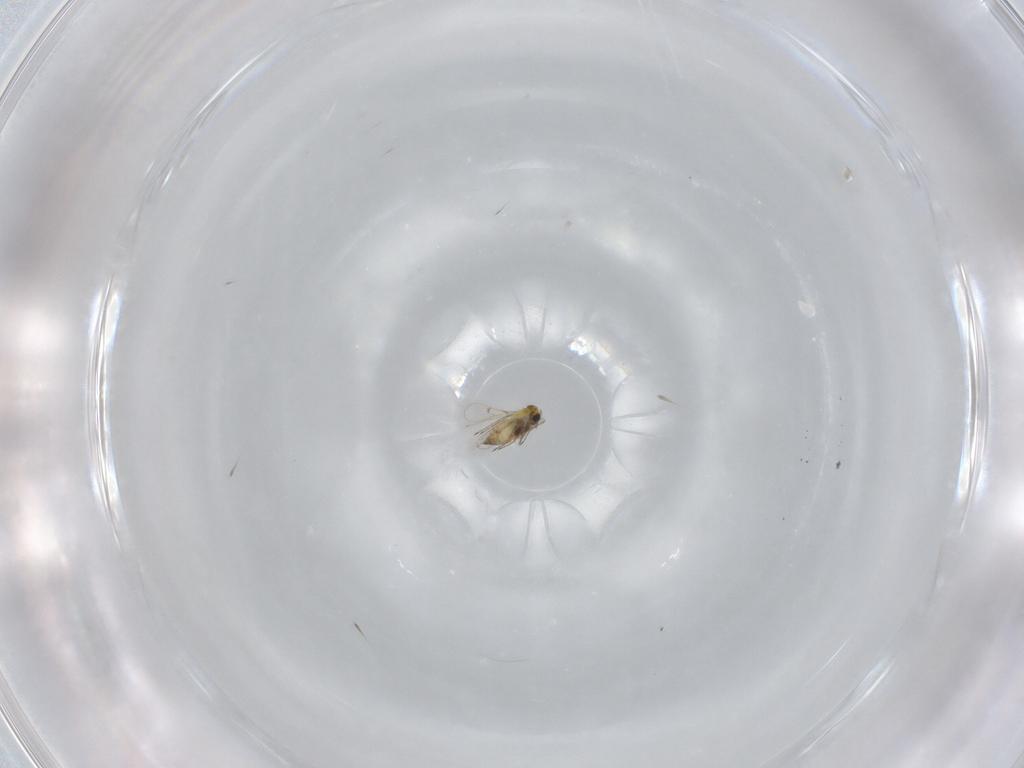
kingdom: Animalia
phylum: Arthropoda
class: Insecta
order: Hymenoptera
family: Trichogrammatidae
